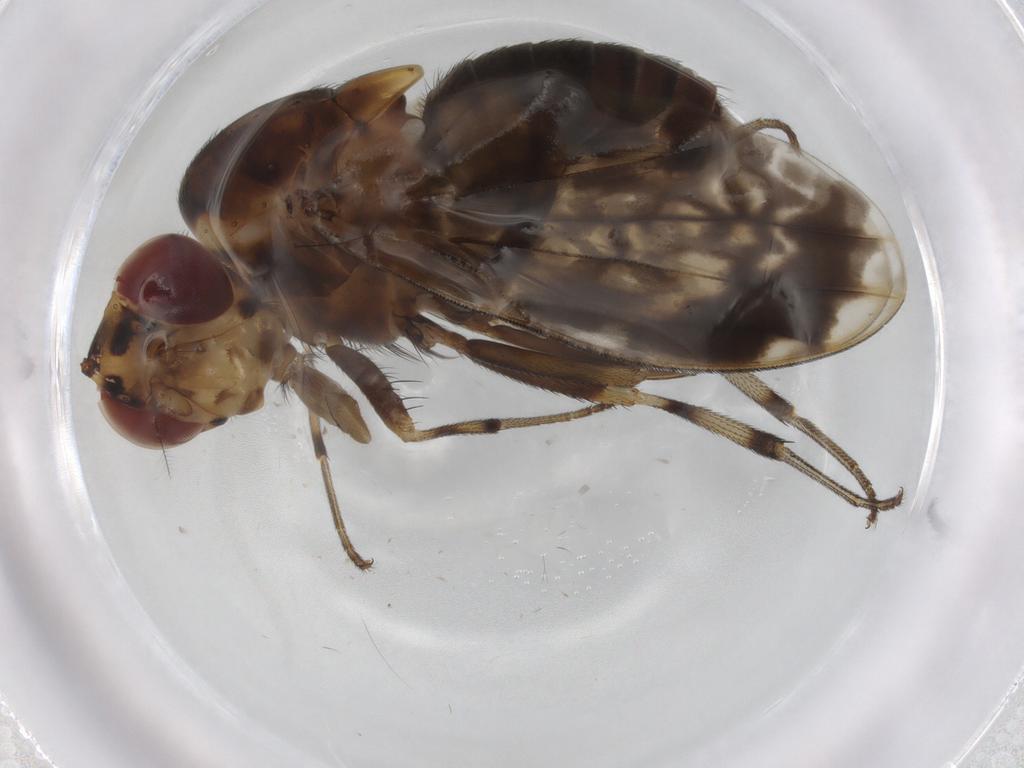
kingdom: Animalia
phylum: Arthropoda
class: Insecta
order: Diptera
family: Cecidomyiidae
